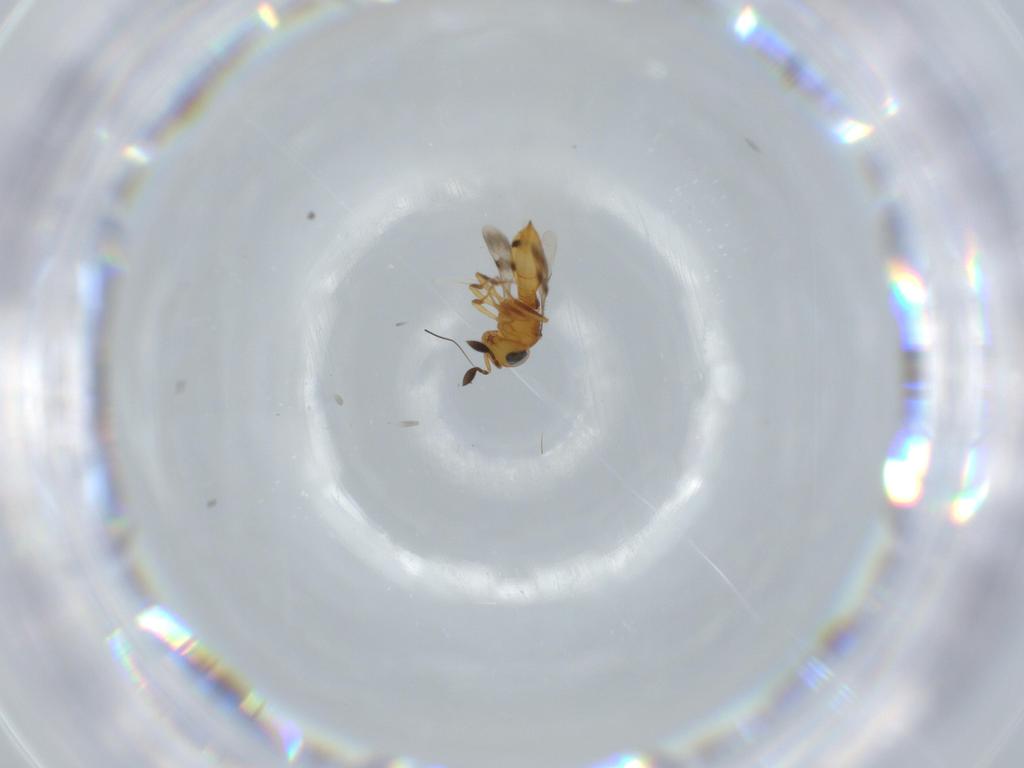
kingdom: Animalia
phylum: Arthropoda
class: Insecta
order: Hymenoptera
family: Scelionidae
